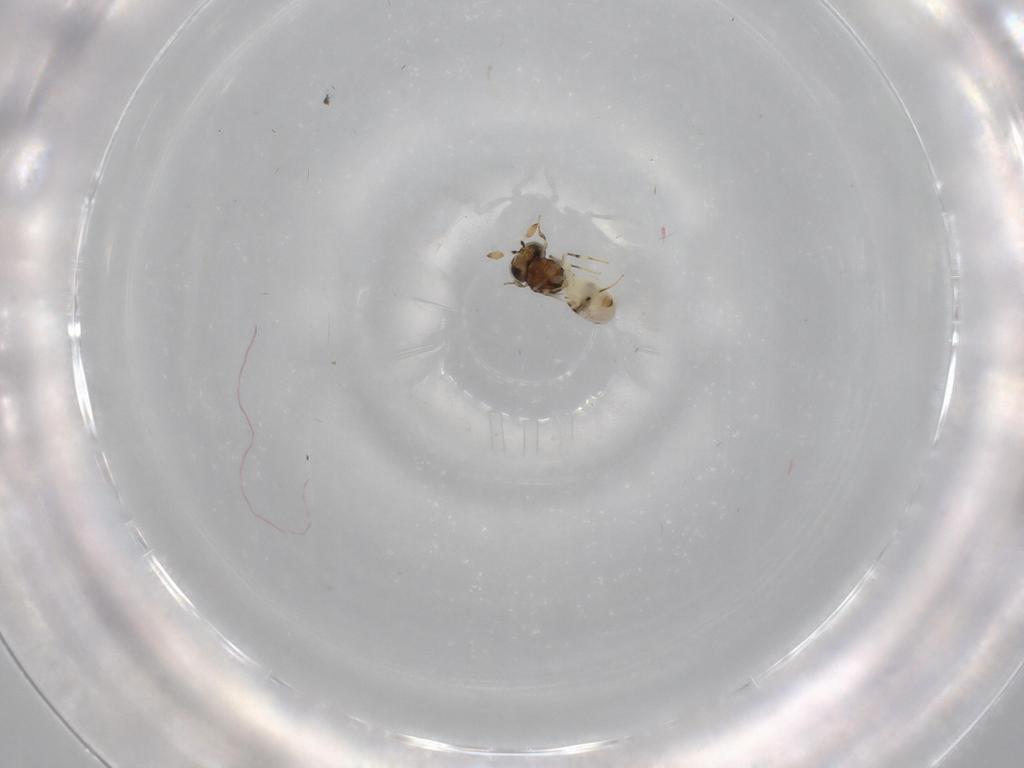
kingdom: Animalia
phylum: Arthropoda
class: Insecta
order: Hymenoptera
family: Scelionidae
